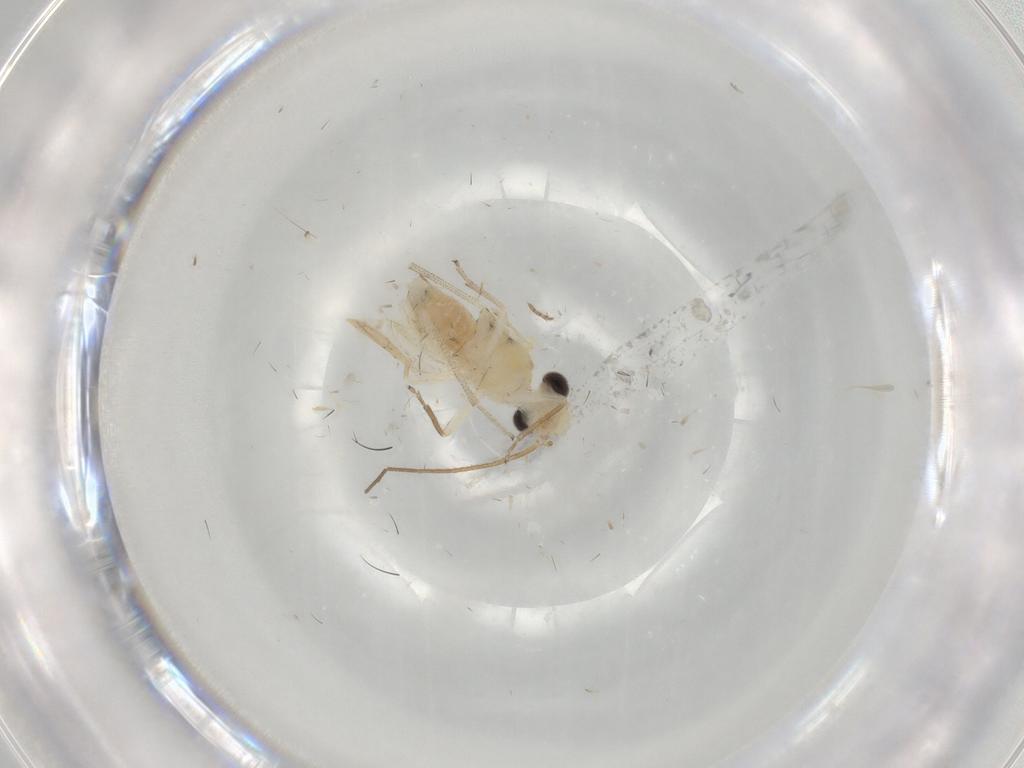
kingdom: Animalia
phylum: Arthropoda
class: Insecta
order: Psocodea
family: Caeciliusidae
